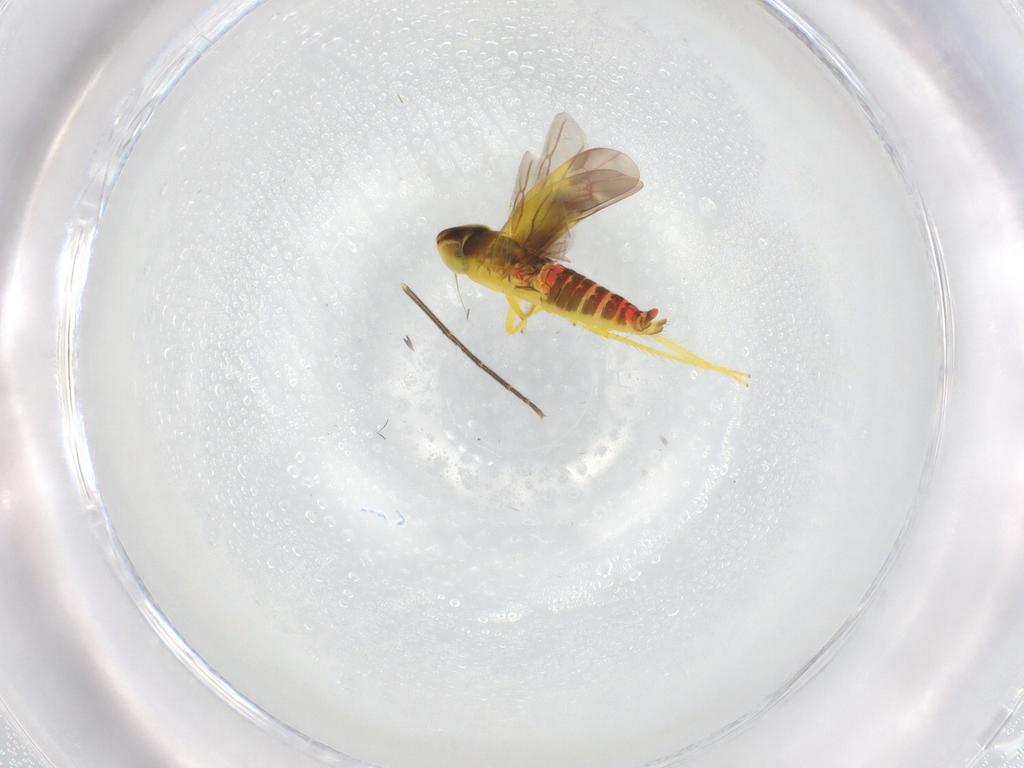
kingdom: Animalia
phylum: Arthropoda
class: Insecta
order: Hemiptera
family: Cicadellidae
